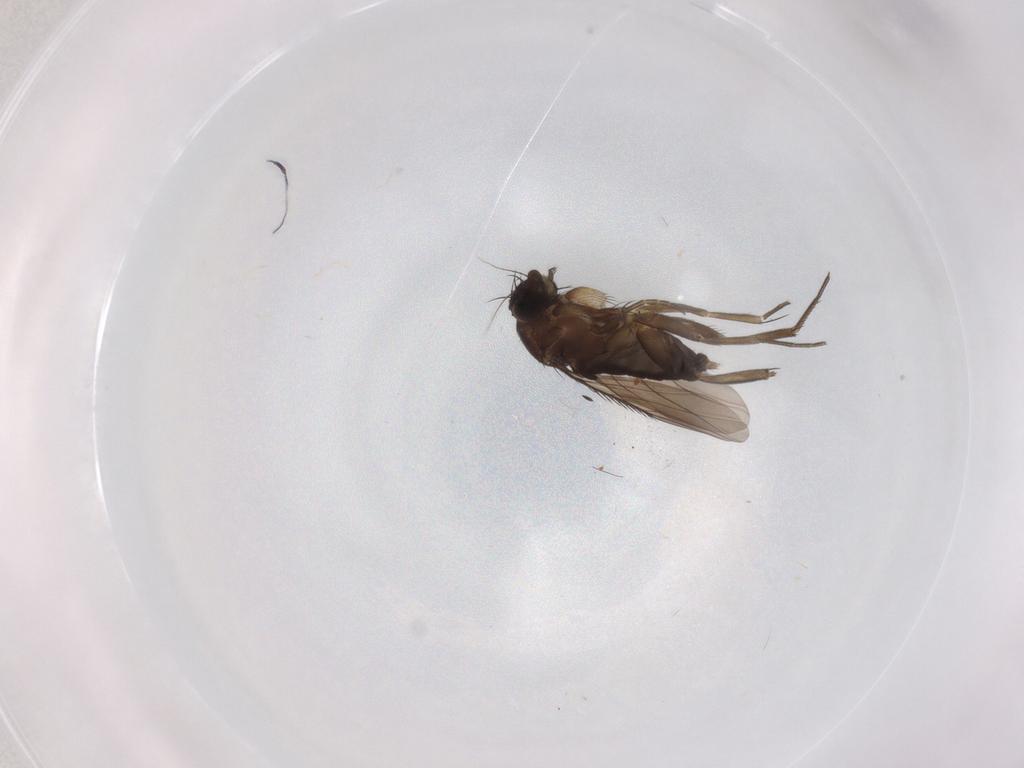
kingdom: Animalia
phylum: Arthropoda
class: Insecta
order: Diptera
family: Phoridae
